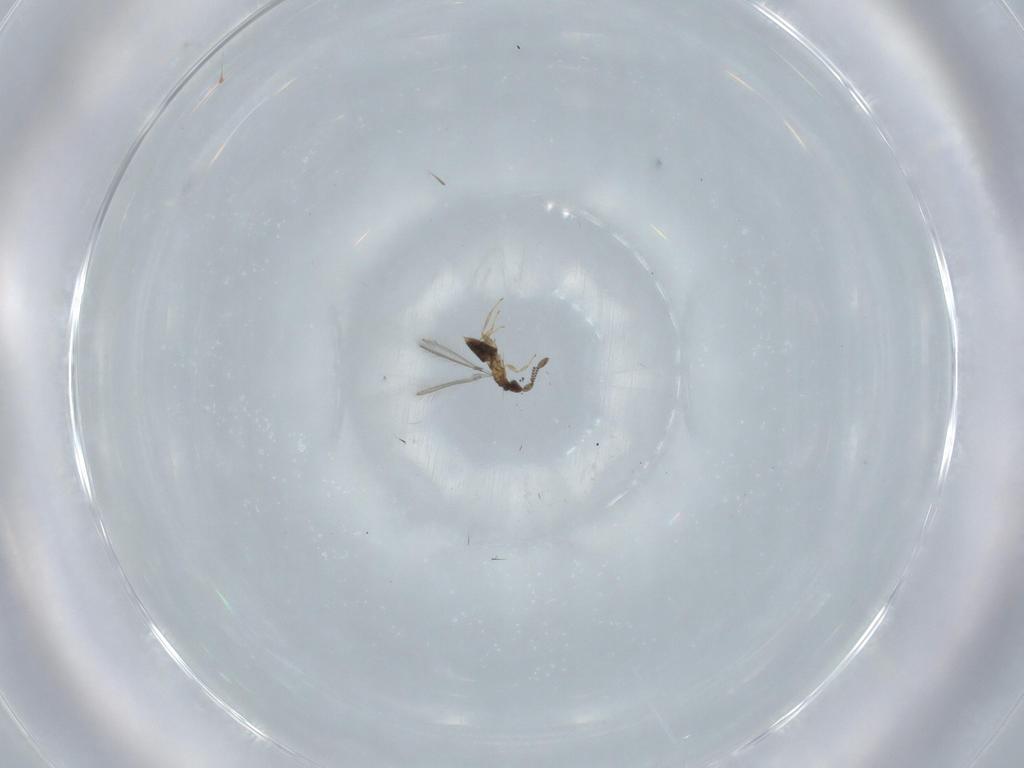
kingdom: Animalia
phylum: Arthropoda
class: Insecta
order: Hymenoptera
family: Mymaridae
